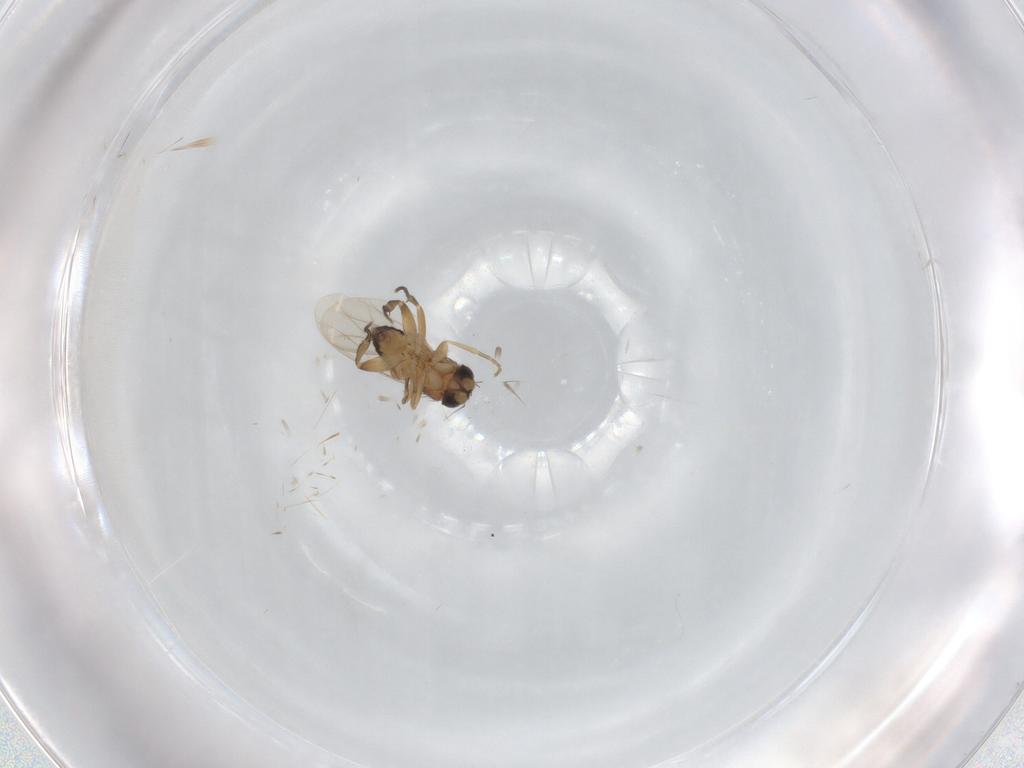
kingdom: Animalia
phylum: Arthropoda
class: Insecta
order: Diptera
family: Phoridae
